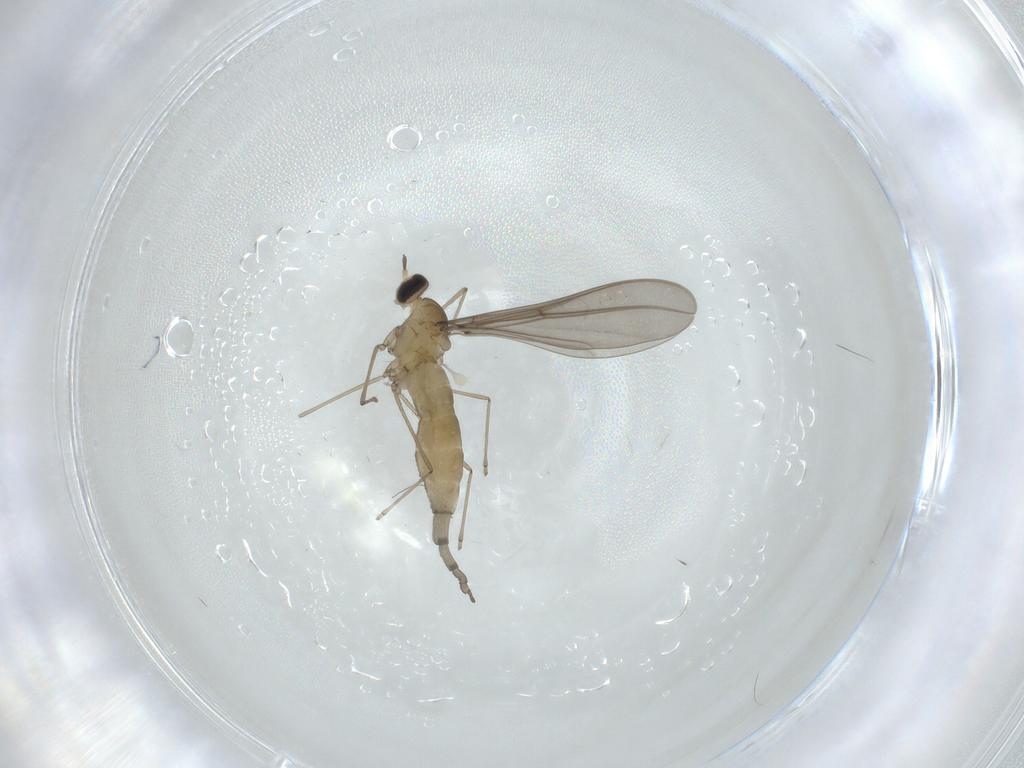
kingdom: Animalia
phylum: Arthropoda
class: Insecta
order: Diptera
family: Cecidomyiidae
